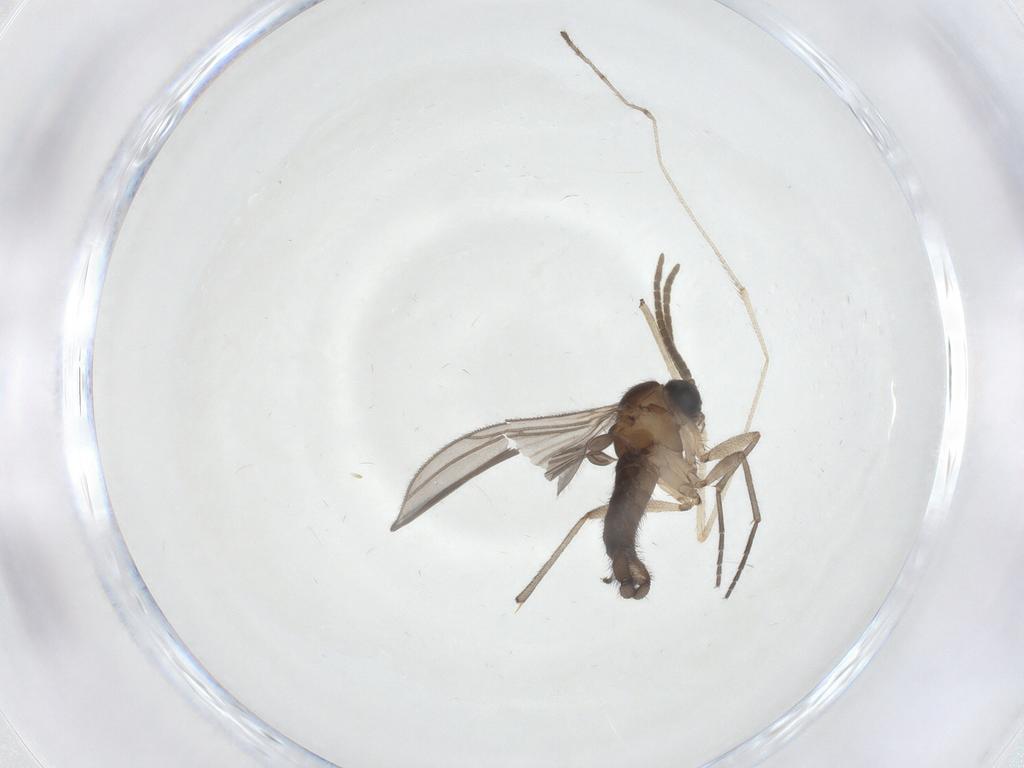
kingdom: Animalia
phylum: Arthropoda
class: Insecta
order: Diptera
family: Limoniidae
